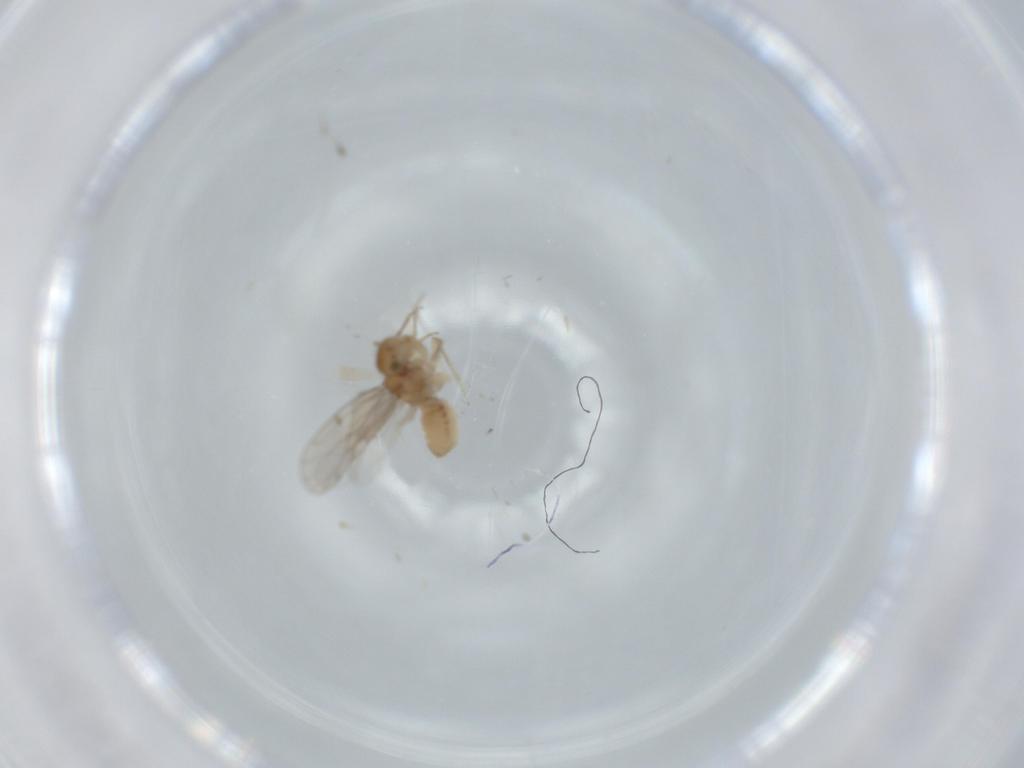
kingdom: Animalia
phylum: Arthropoda
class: Insecta
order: Psocodea
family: Ectopsocidae
